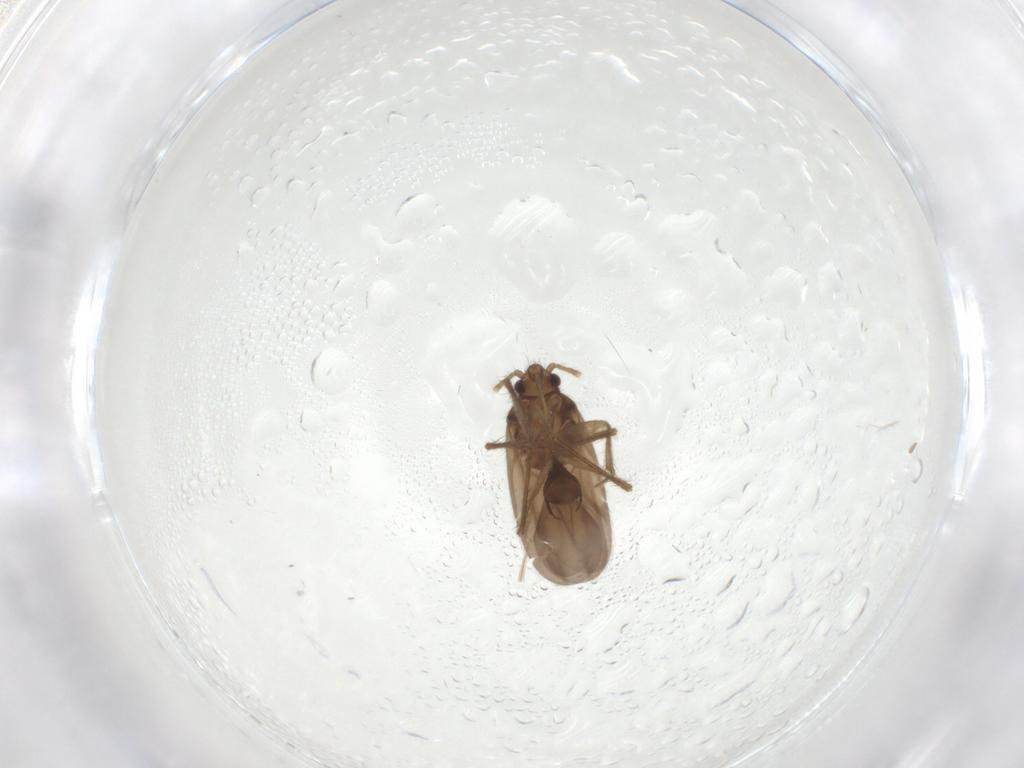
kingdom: Animalia
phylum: Arthropoda
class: Insecta
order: Hemiptera
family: Ceratocombidae
